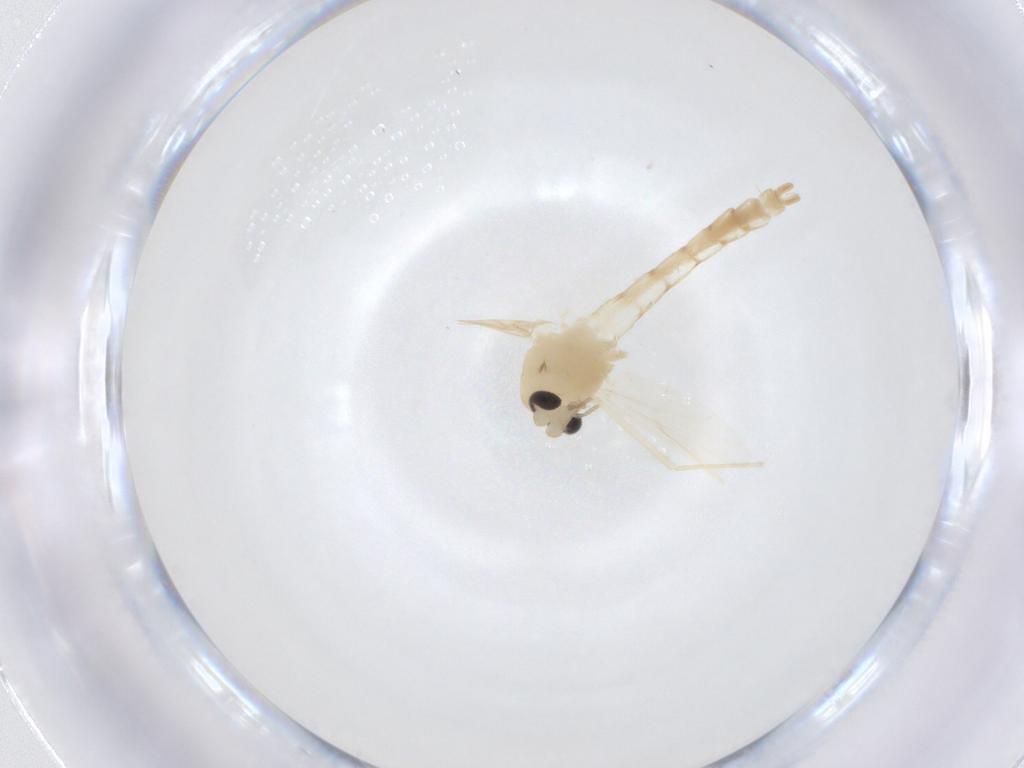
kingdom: Animalia
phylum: Arthropoda
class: Insecta
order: Diptera
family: Chironomidae
